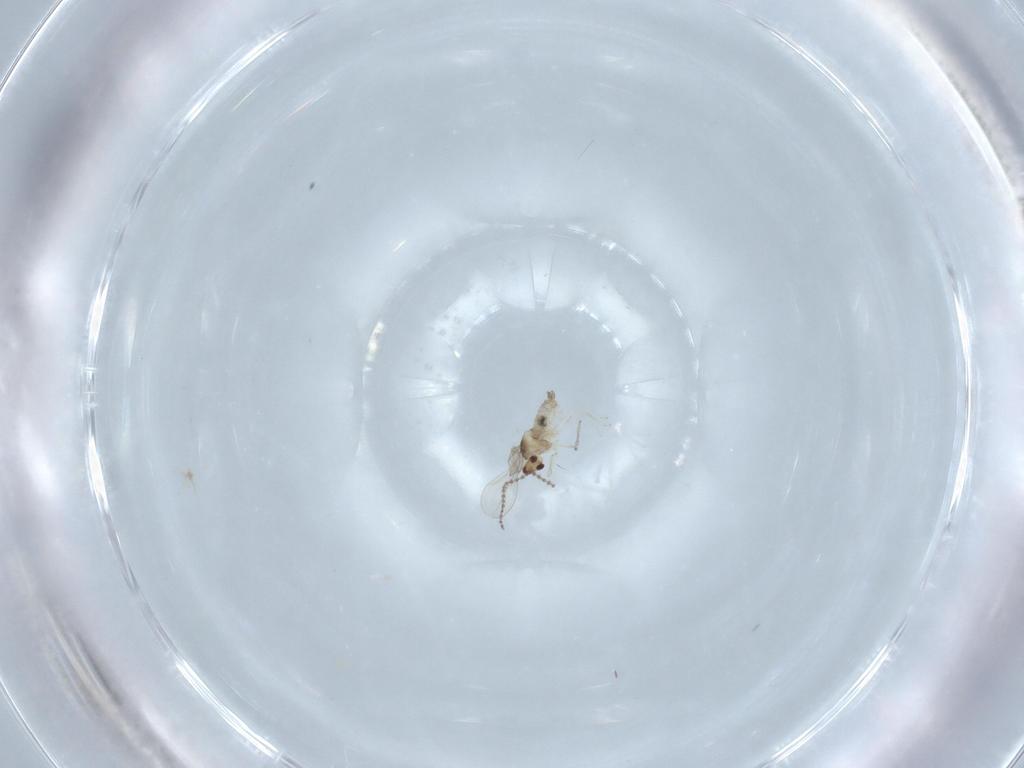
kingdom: Animalia
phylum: Arthropoda
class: Insecta
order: Diptera
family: Cecidomyiidae
